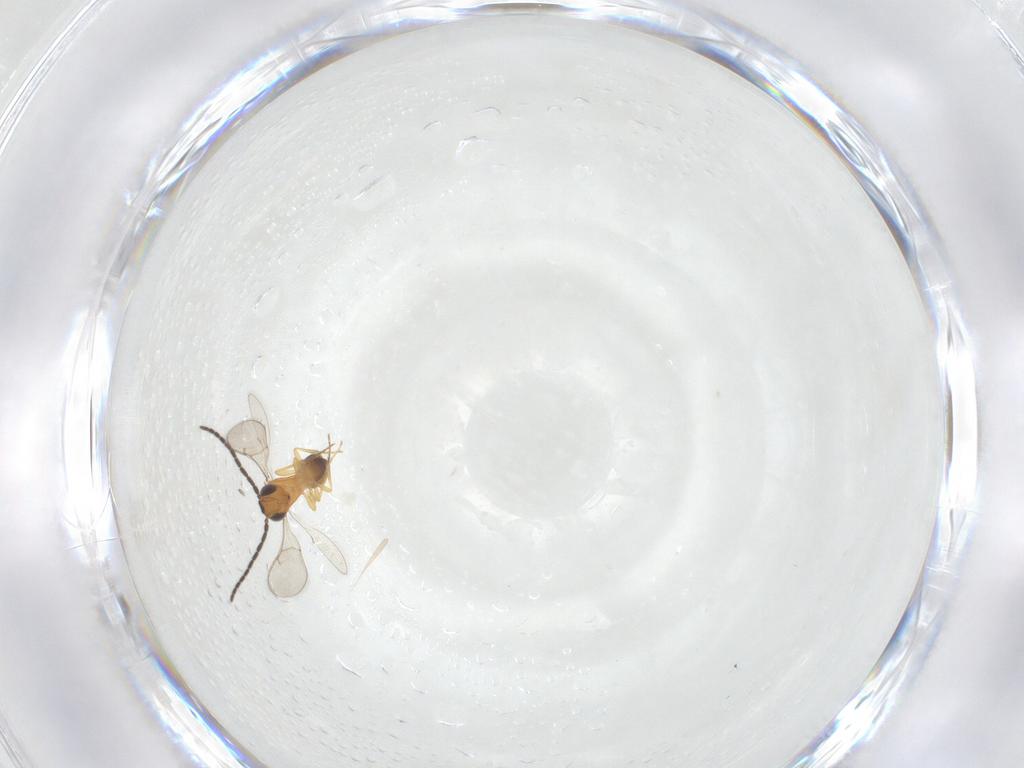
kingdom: Animalia
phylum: Arthropoda
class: Insecta
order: Hymenoptera
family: Scelionidae
